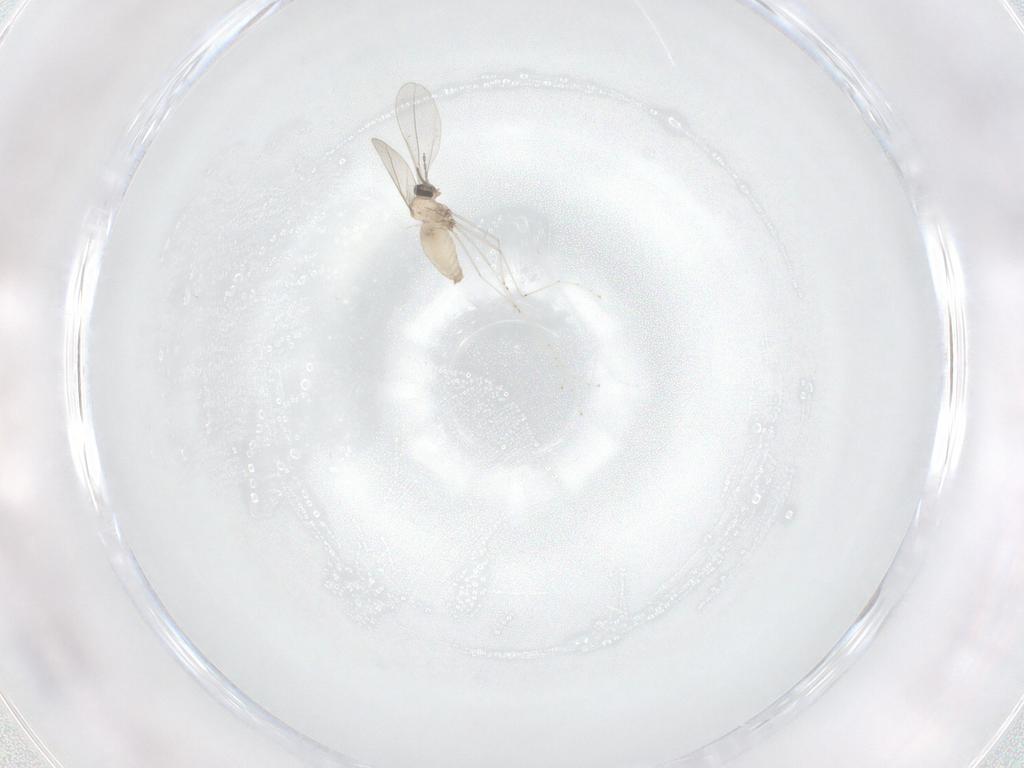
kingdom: Animalia
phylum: Arthropoda
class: Insecta
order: Diptera
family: Cecidomyiidae
